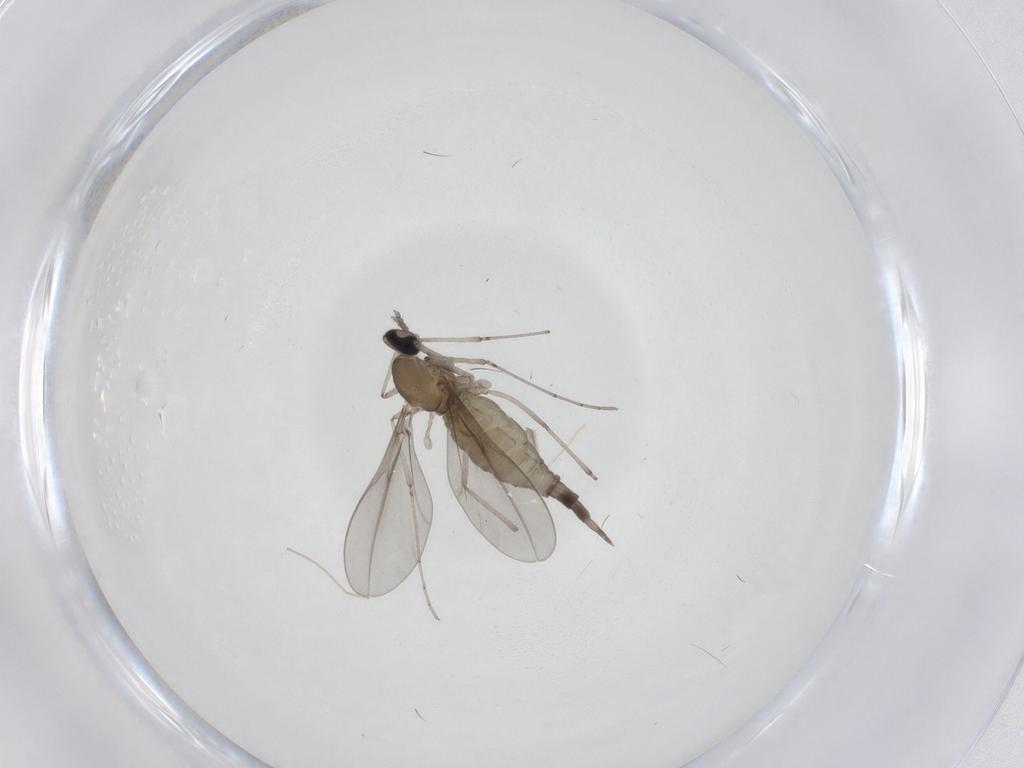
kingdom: Animalia
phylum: Arthropoda
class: Insecta
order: Diptera
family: Cecidomyiidae
